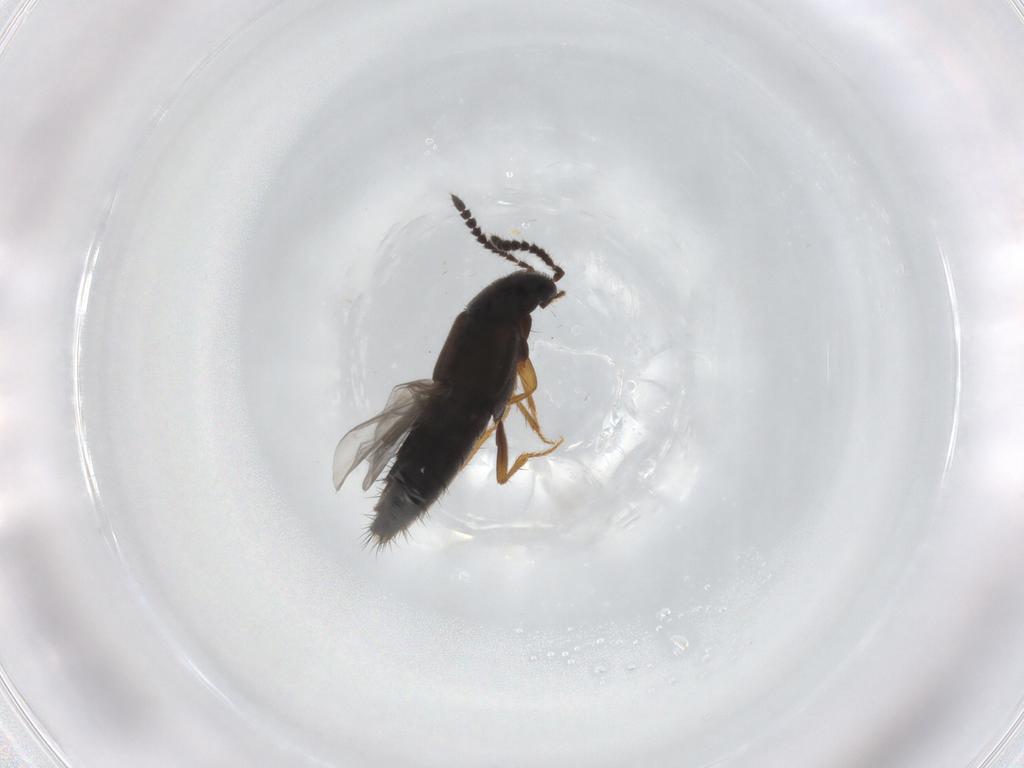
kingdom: Animalia
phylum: Arthropoda
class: Insecta
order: Coleoptera
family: Staphylinidae
